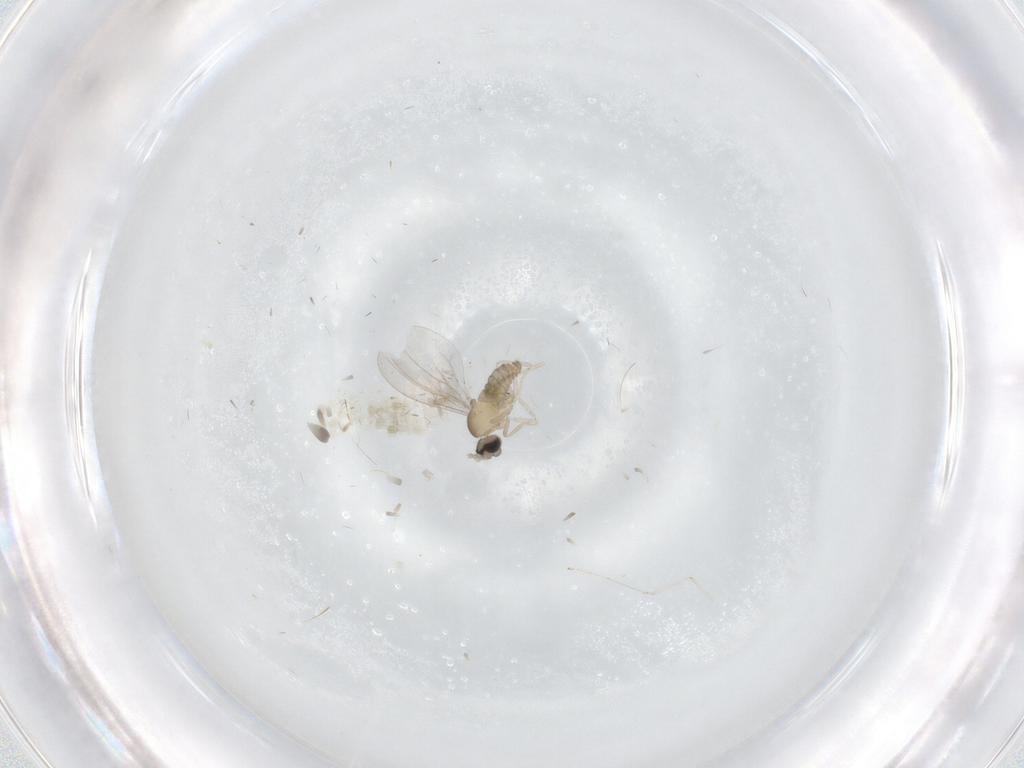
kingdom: Animalia
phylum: Arthropoda
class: Insecta
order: Diptera
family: Cecidomyiidae
